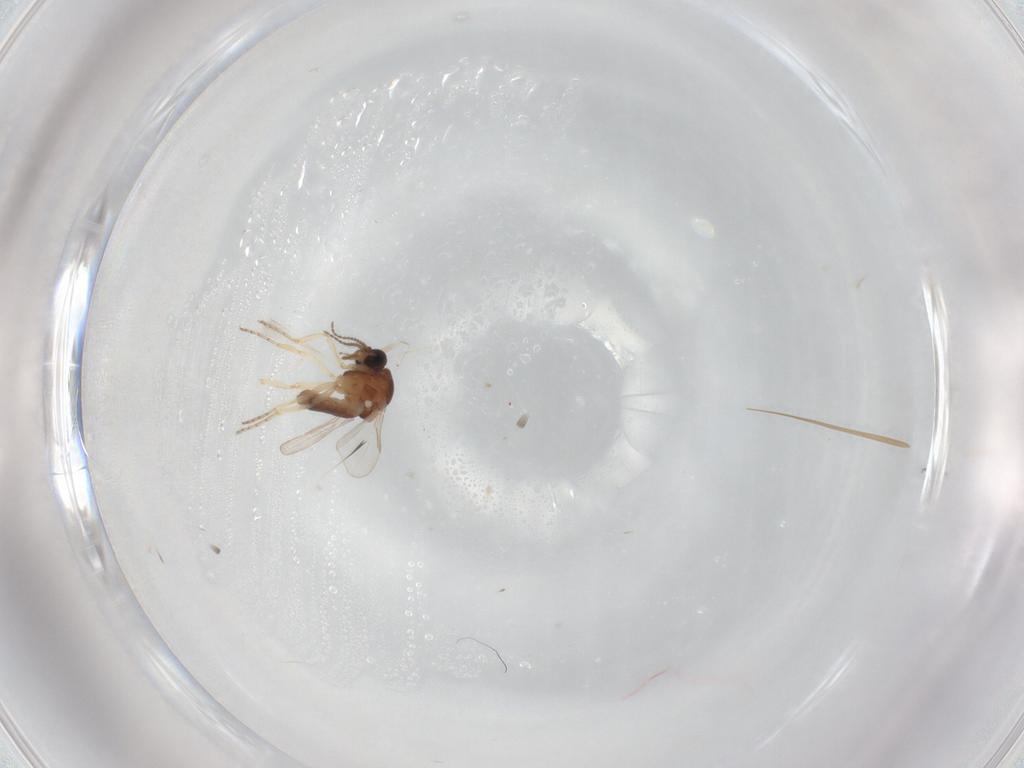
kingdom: Animalia
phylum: Arthropoda
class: Insecta
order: Diptera
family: Ceratopogonidae
